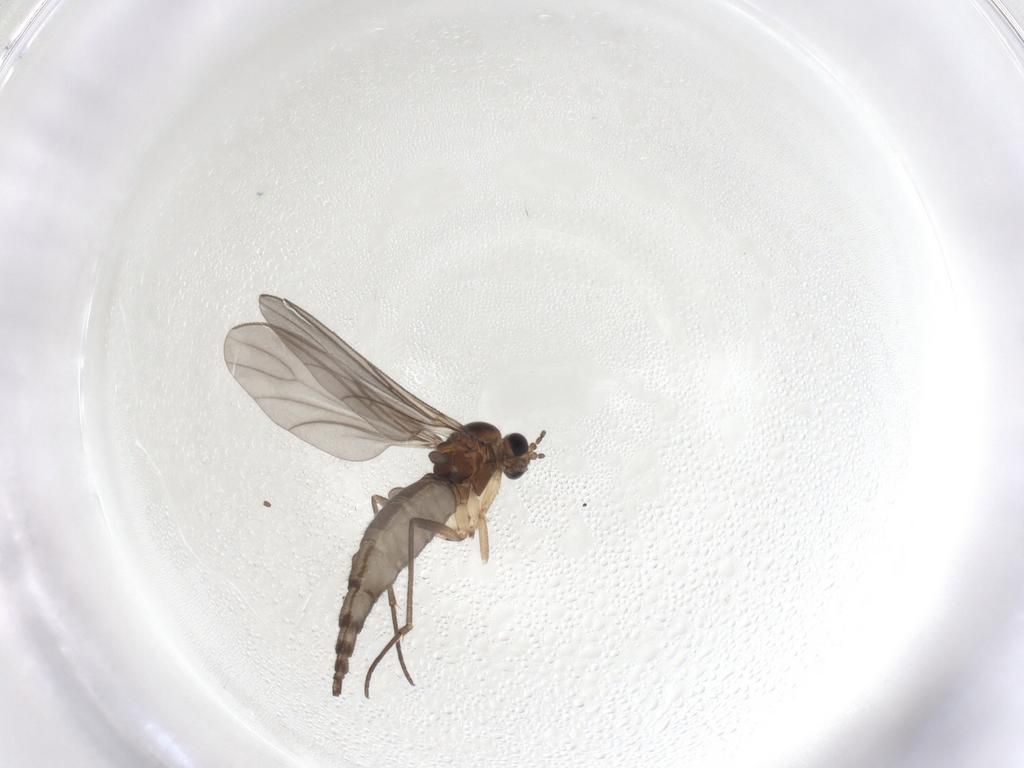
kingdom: Animalia
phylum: Arthropoda
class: Insecta
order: Diptera
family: Sciaridae
